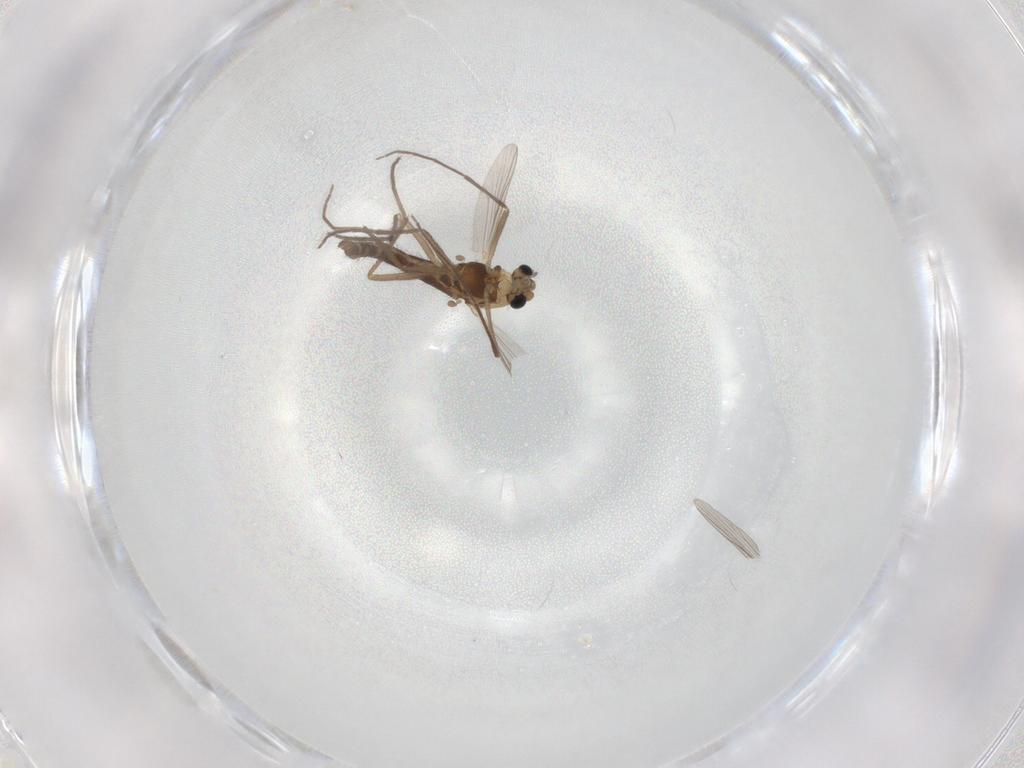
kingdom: Animalia
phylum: Arthropoda
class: Insecta
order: Diptera
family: Chironomidae
